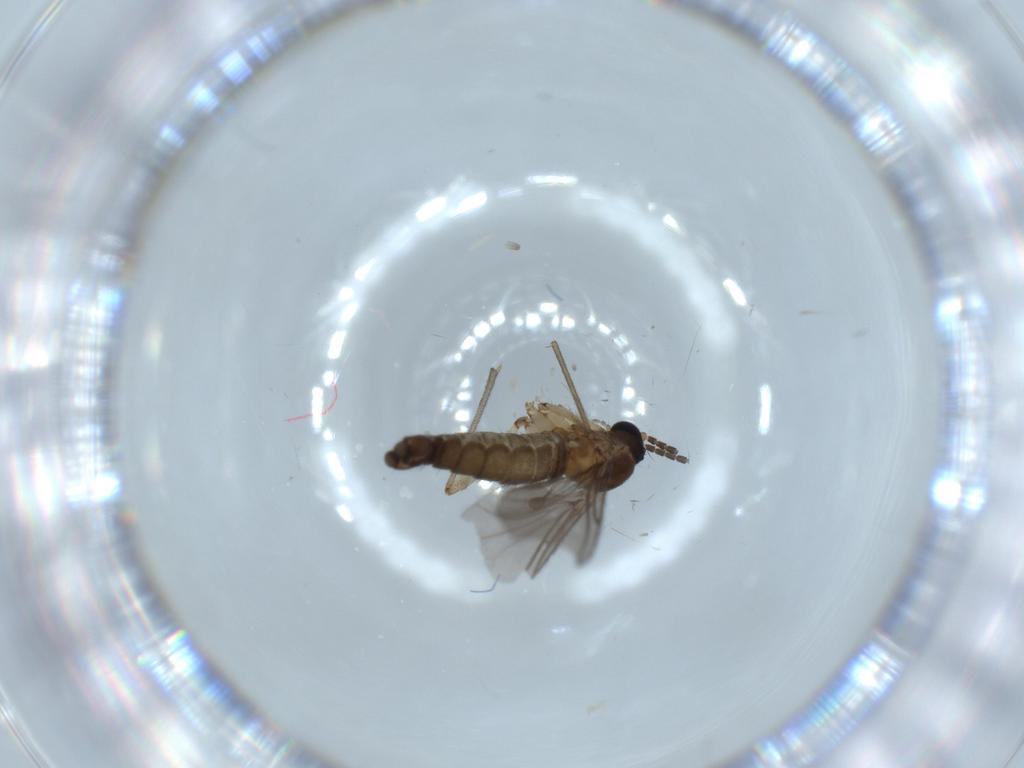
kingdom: Animalia
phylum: Arthropoda
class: Insecta
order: Diptera
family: Sciaridae
